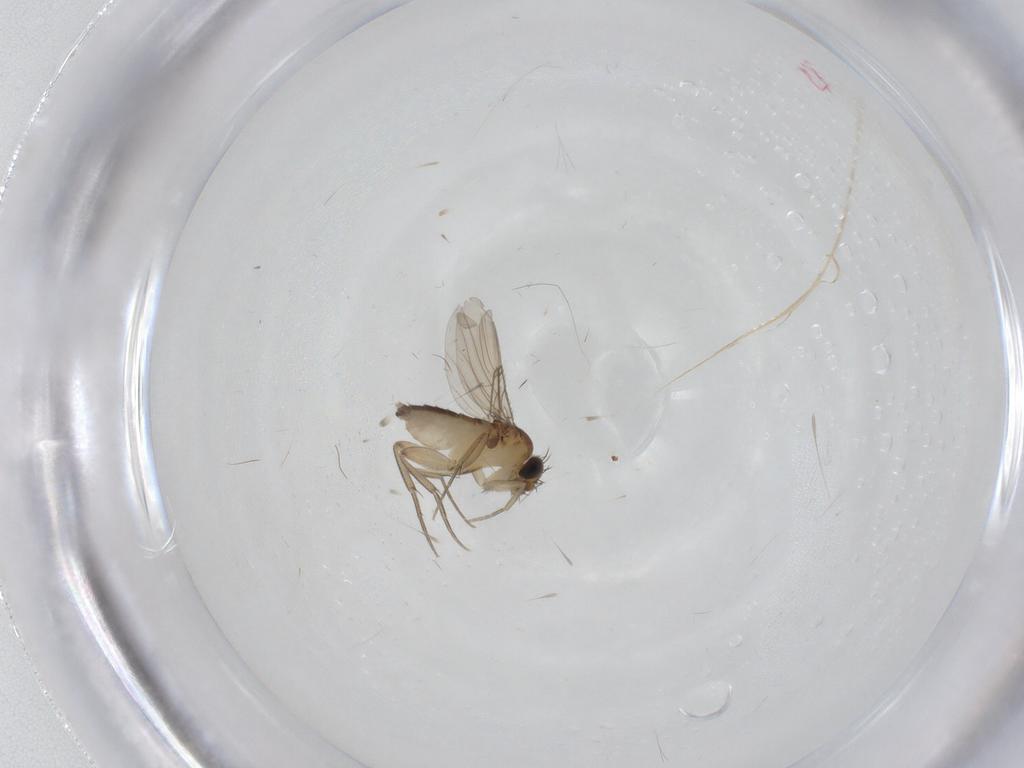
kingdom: Animalia
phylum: Arthropoda
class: Insecta
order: Diptera
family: Phoridae
